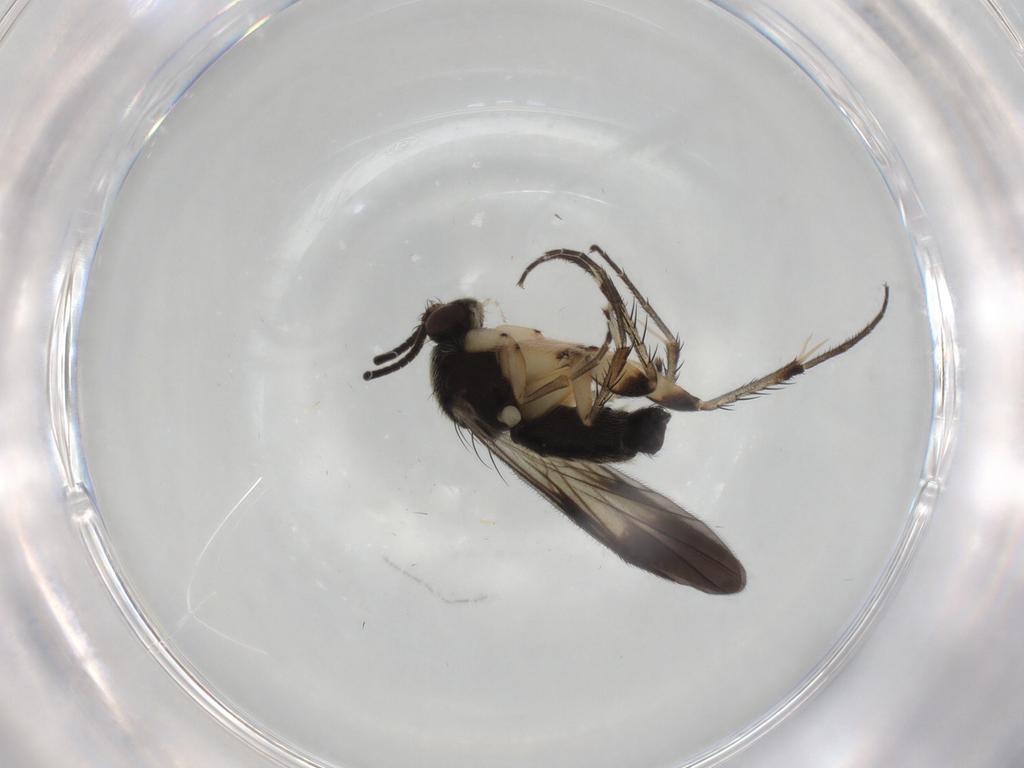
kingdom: Animalia
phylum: Arthropoda
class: Insecta
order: Diptera
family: Mycetophilidae
